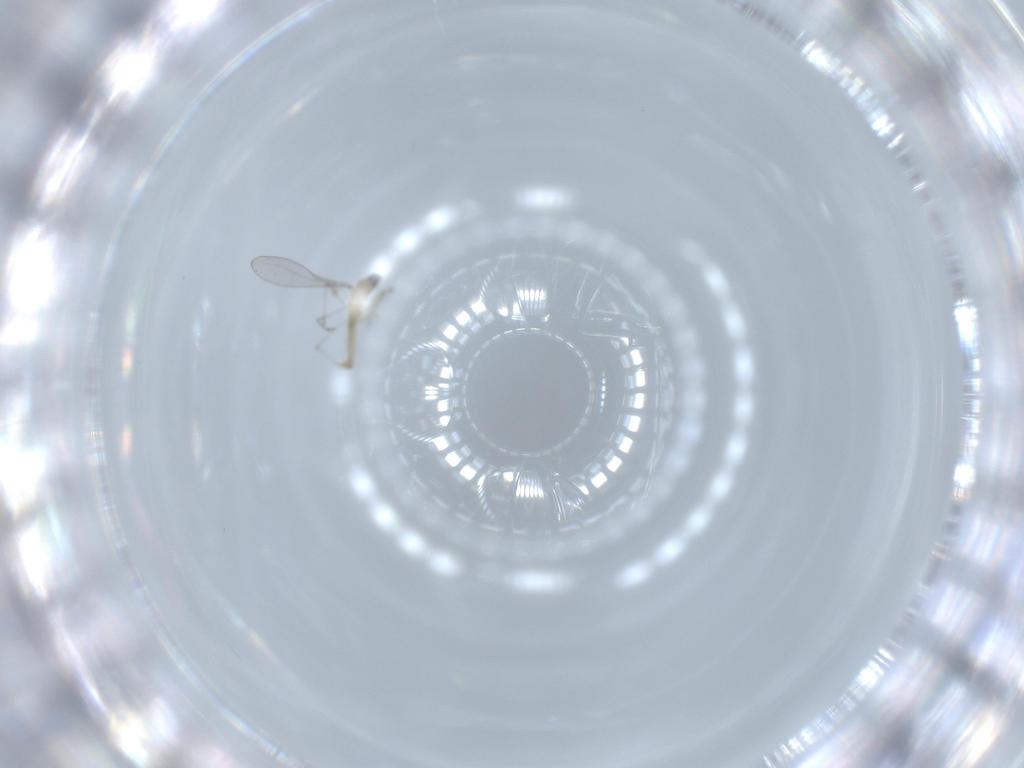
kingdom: Animalia
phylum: Arthropoda
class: Insecta
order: Diptera
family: Cecidomyiidae
